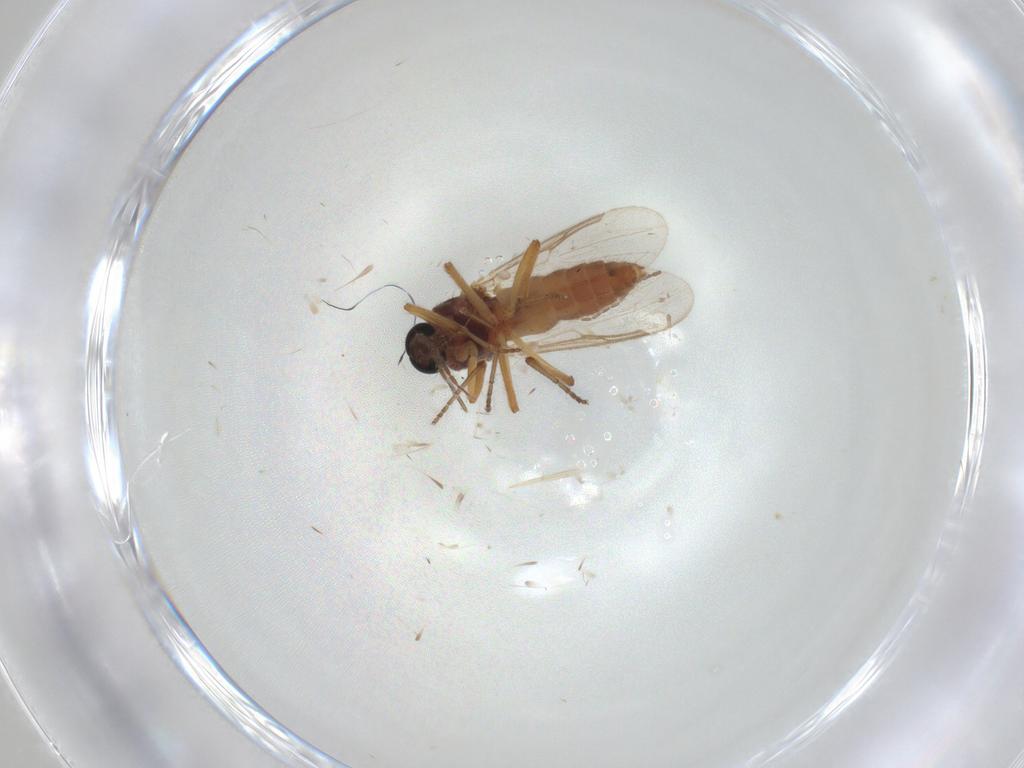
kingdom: Animalia
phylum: Arthropoda
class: Insecta
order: Diptera
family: Ceratopogonidae
